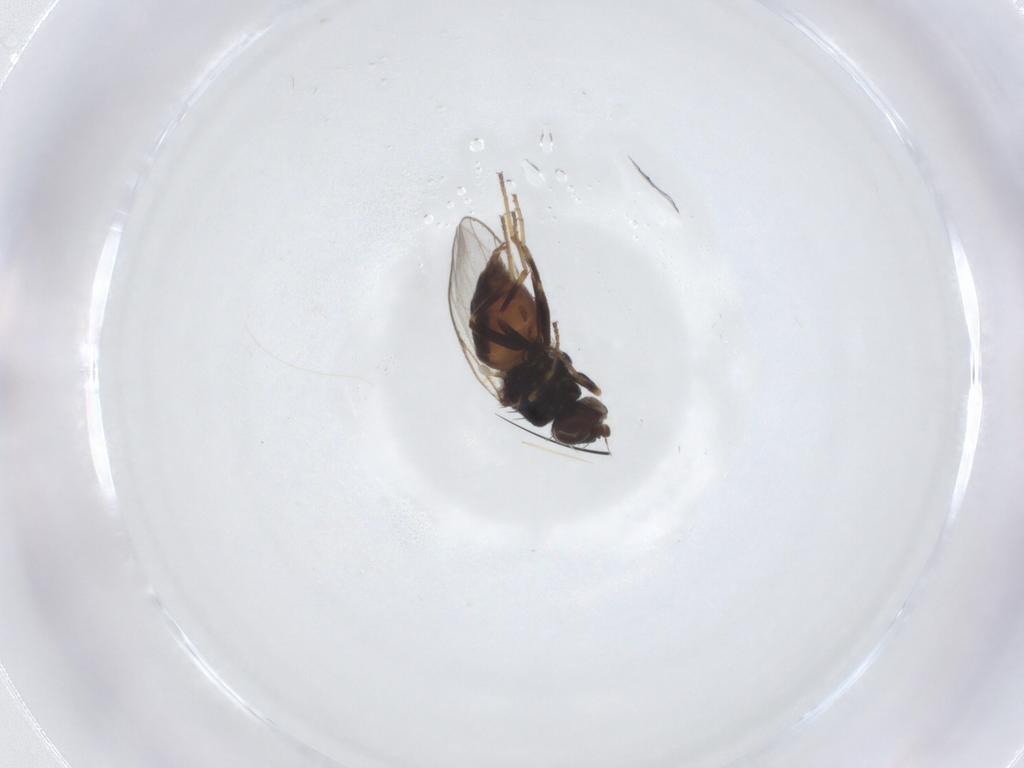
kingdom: Animalia
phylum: Arthropoda
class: Insecta
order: Diptera
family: Chloropidae
